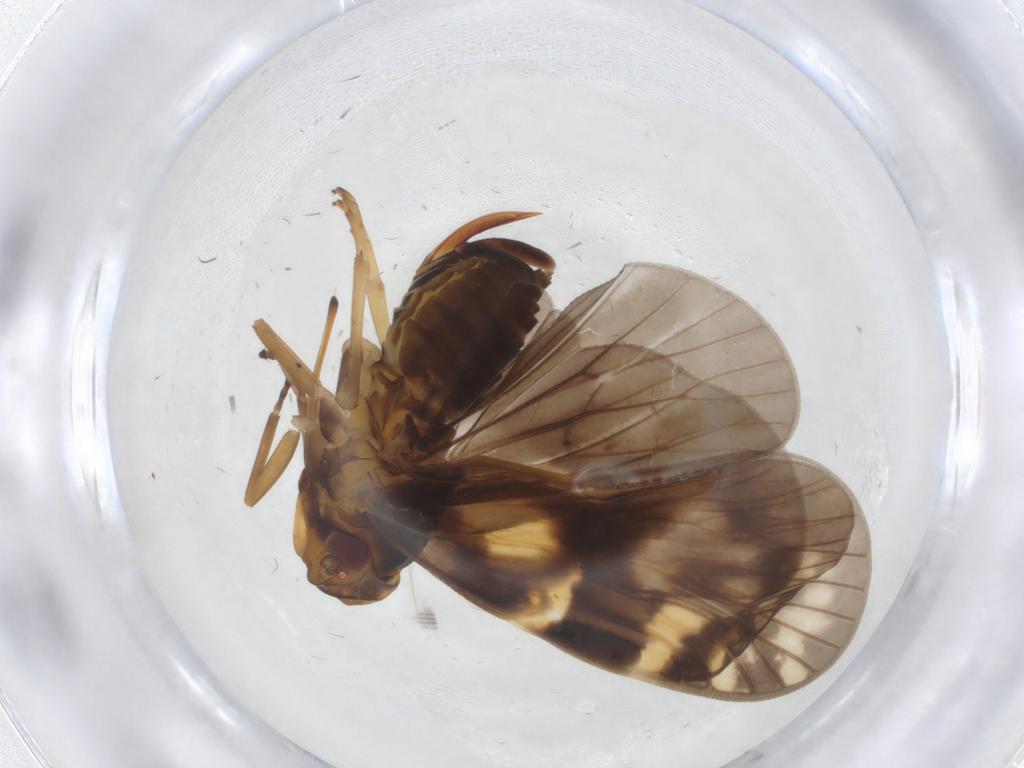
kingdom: Animalia
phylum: Arthropoda
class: Insecta
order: Hemiptera
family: Cixiidae
